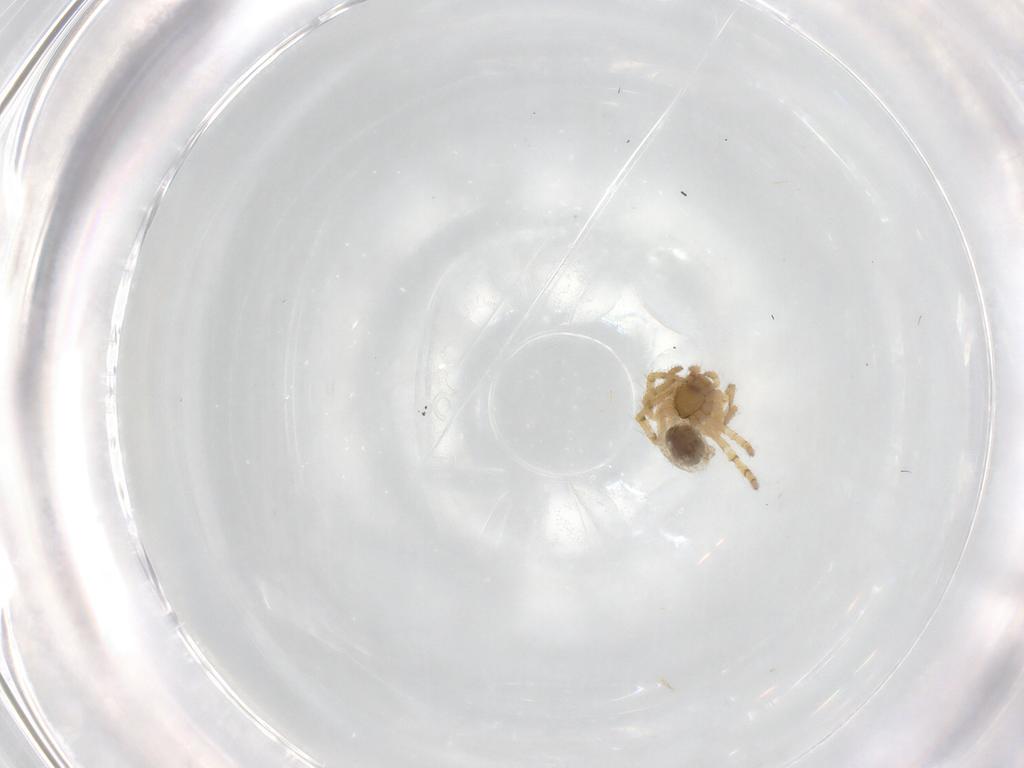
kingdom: Animalia
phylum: Arthropoda
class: Arachnida
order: Araneae
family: Theridiidae
